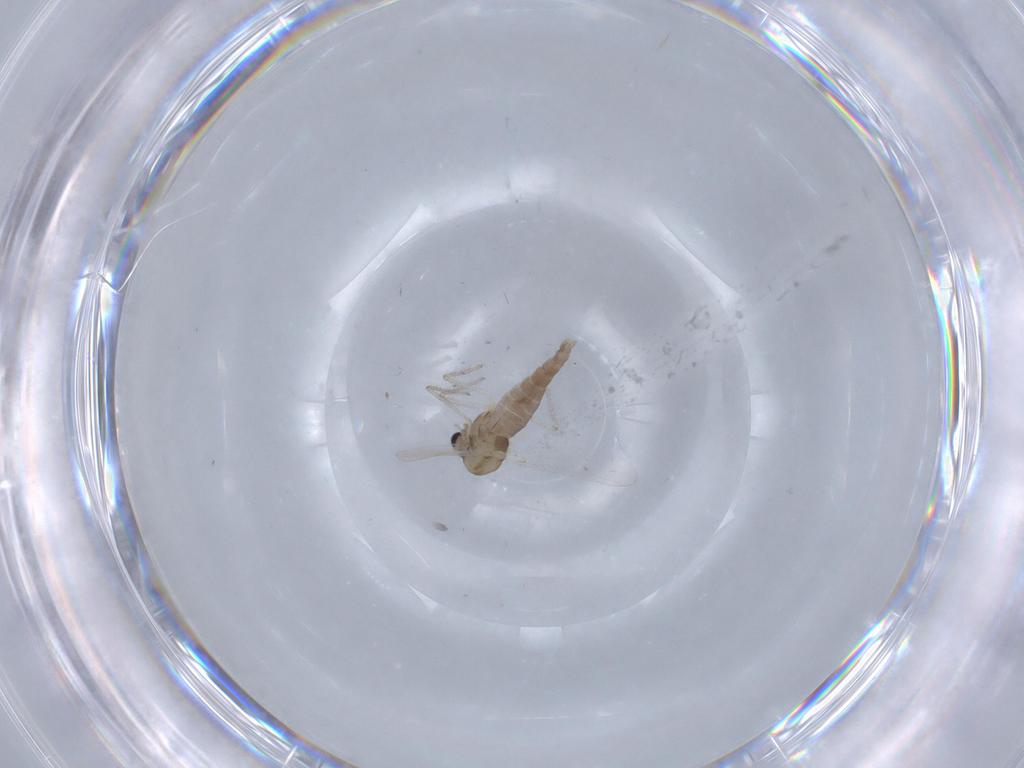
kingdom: Animalia
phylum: Arthropoda
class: Insecta
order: Diptera
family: Chironomidae
